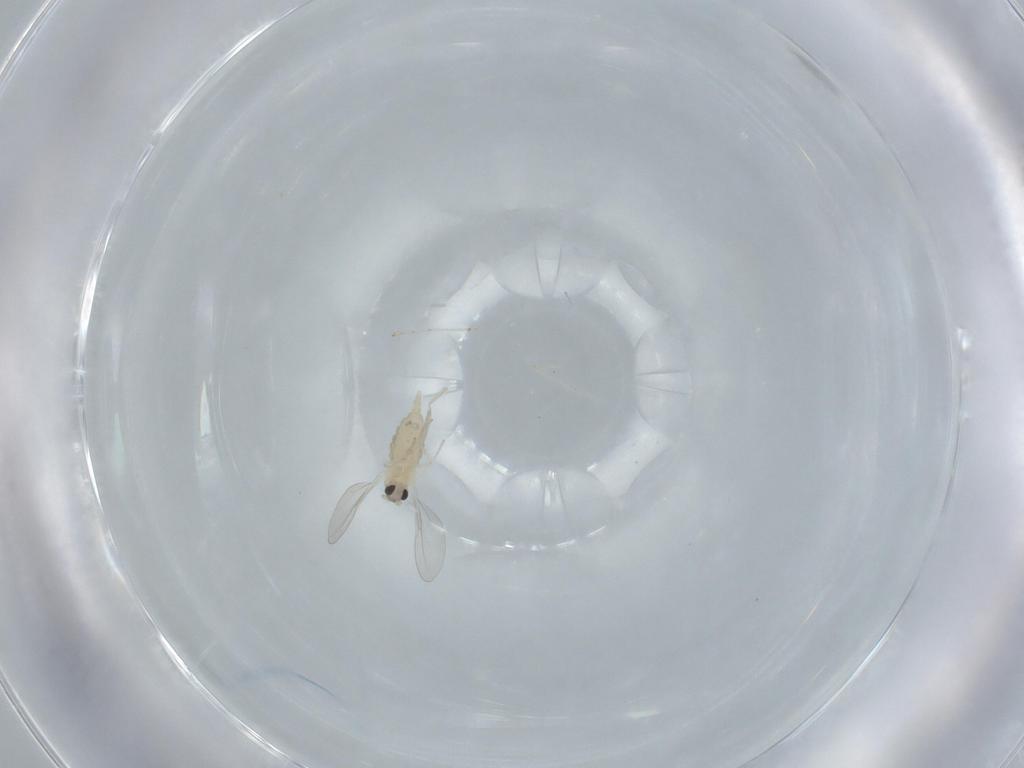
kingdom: Animalia
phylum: Arthropoda
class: Insecta
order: Diptera
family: Cecidomyiidae
